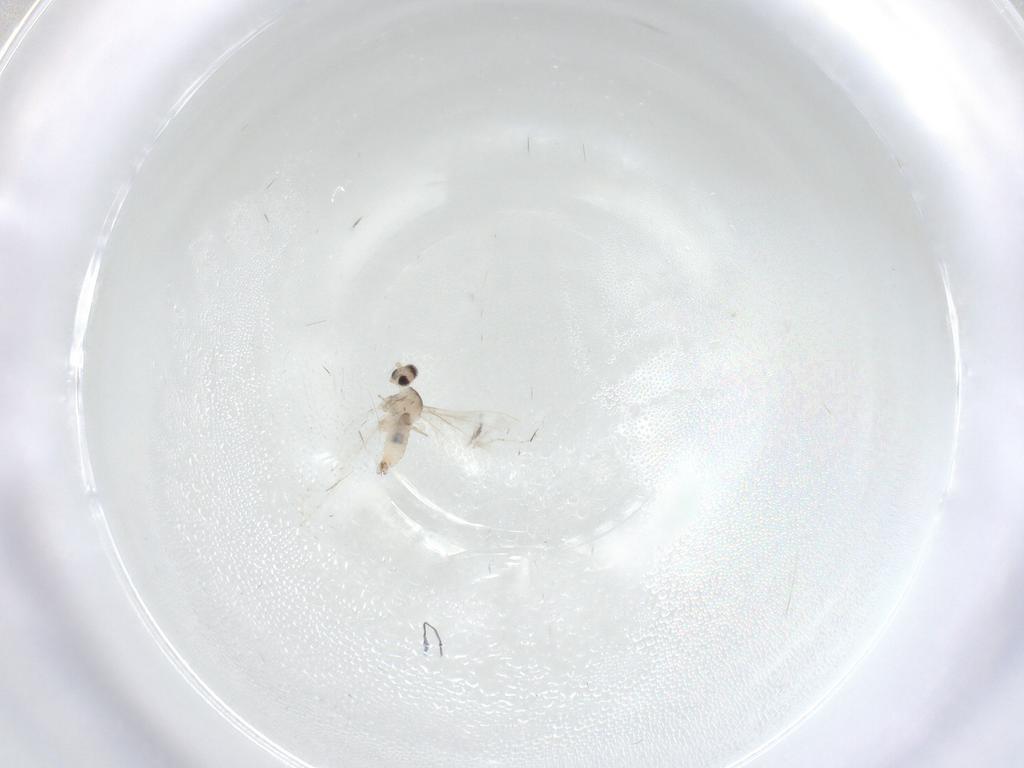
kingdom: Animalia
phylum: Arthropoda
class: Insecta
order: Diptera
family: Cecidomyiidae
